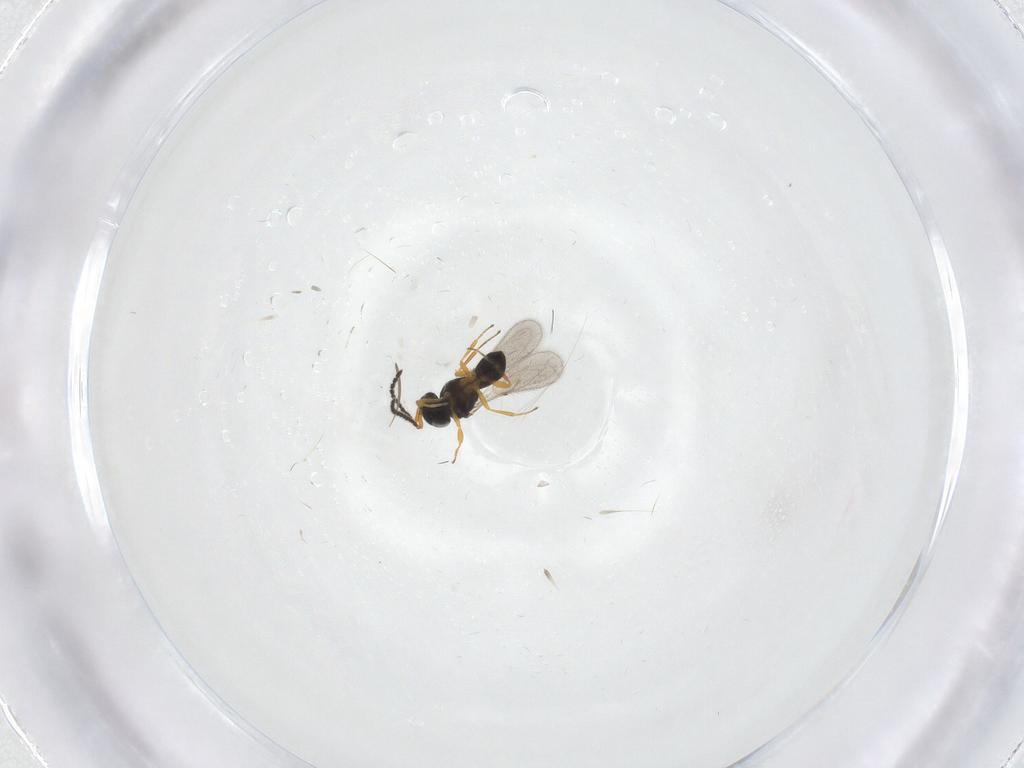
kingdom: Animalia
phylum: Arthropoda
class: Insecta
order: Hymenoptera
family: Scelionidae
